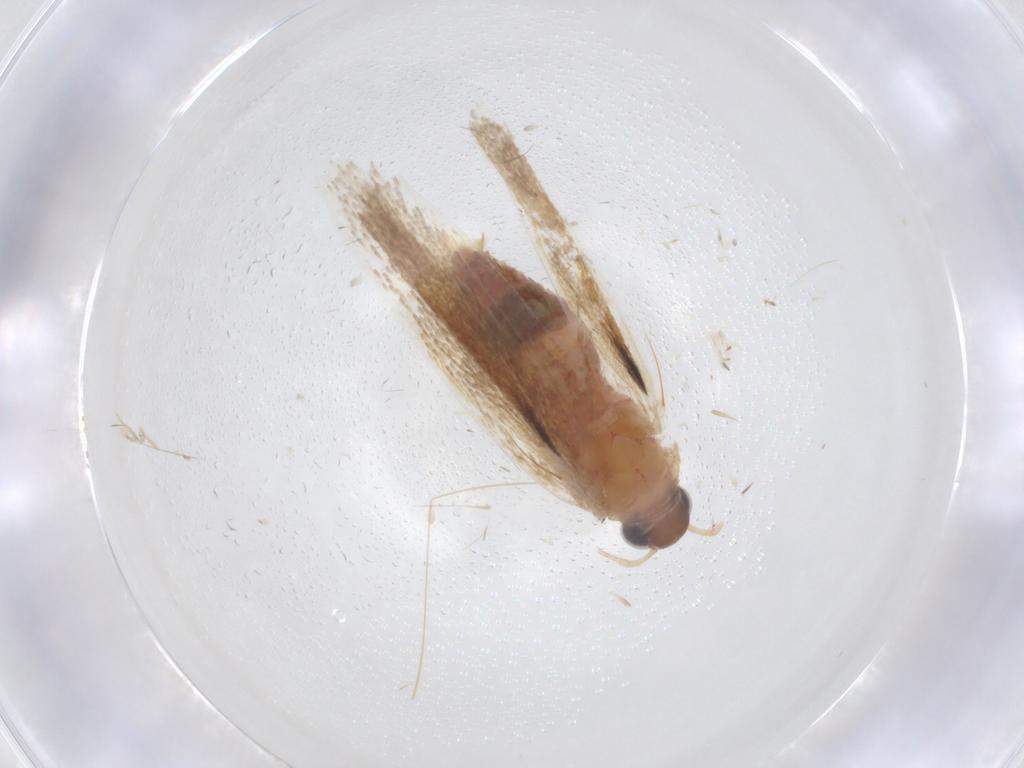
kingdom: Animalia
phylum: Arthropoda
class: Insecta
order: Lepidoptera
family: Gelechiidae
